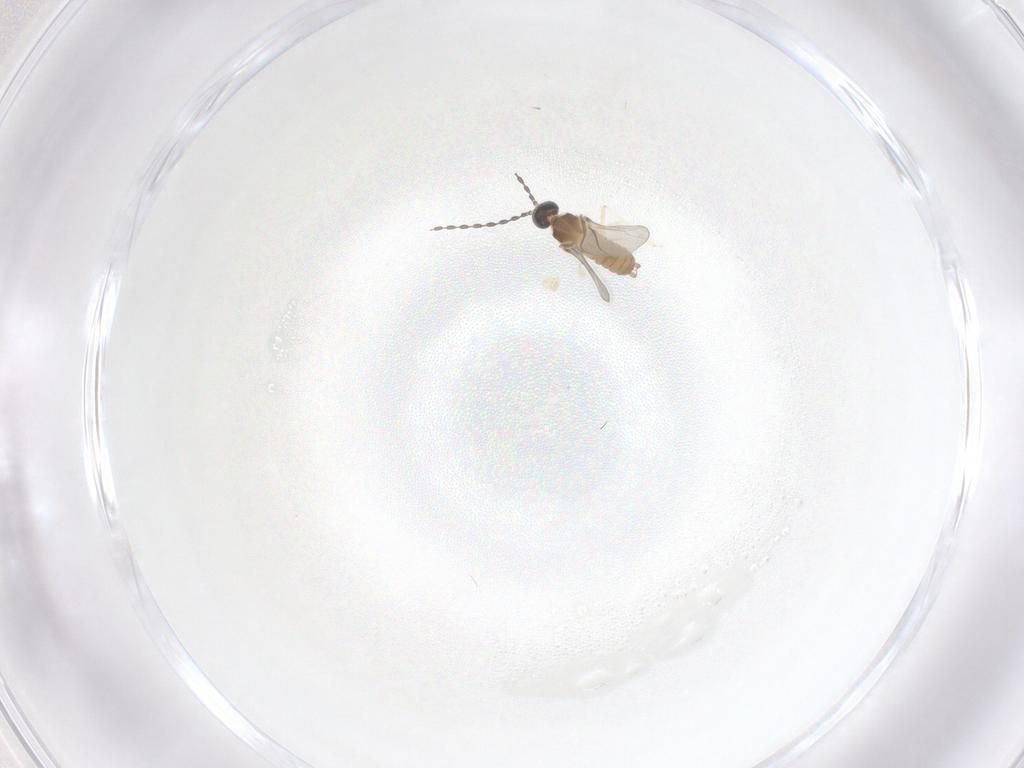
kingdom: Animalia
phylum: Arthropoda
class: Insecta
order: Diptera
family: Cecidomyiidae
